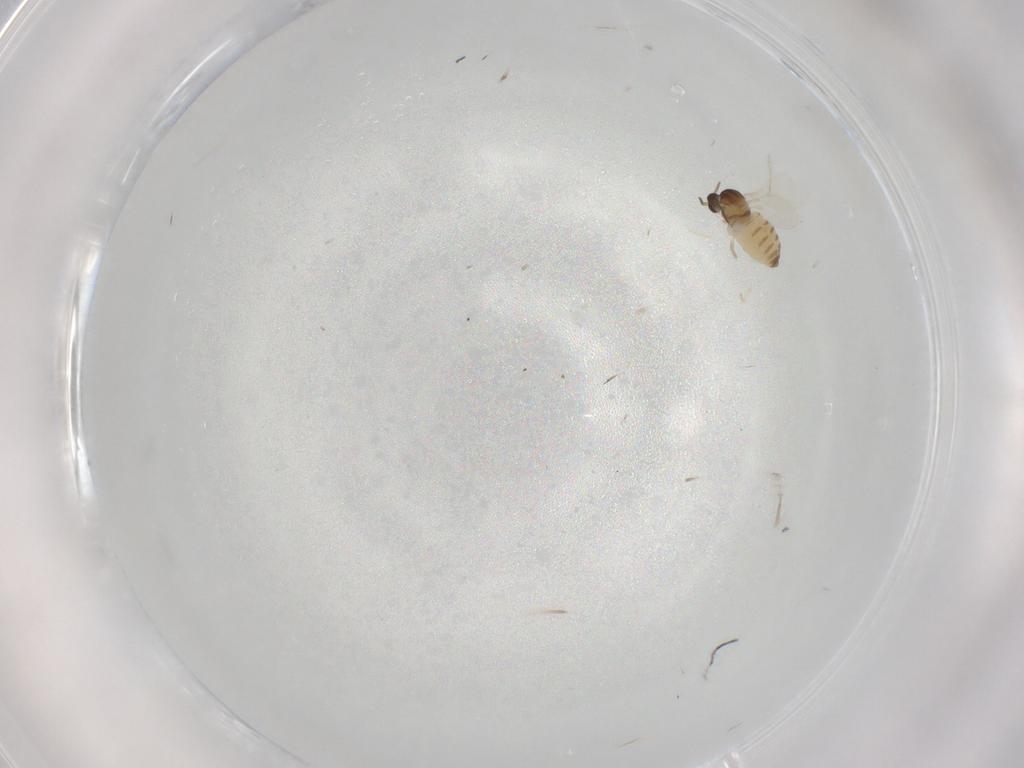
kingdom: Animalia
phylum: Arthropoda
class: Insecta
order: Diptera
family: Cecidomyiidae
